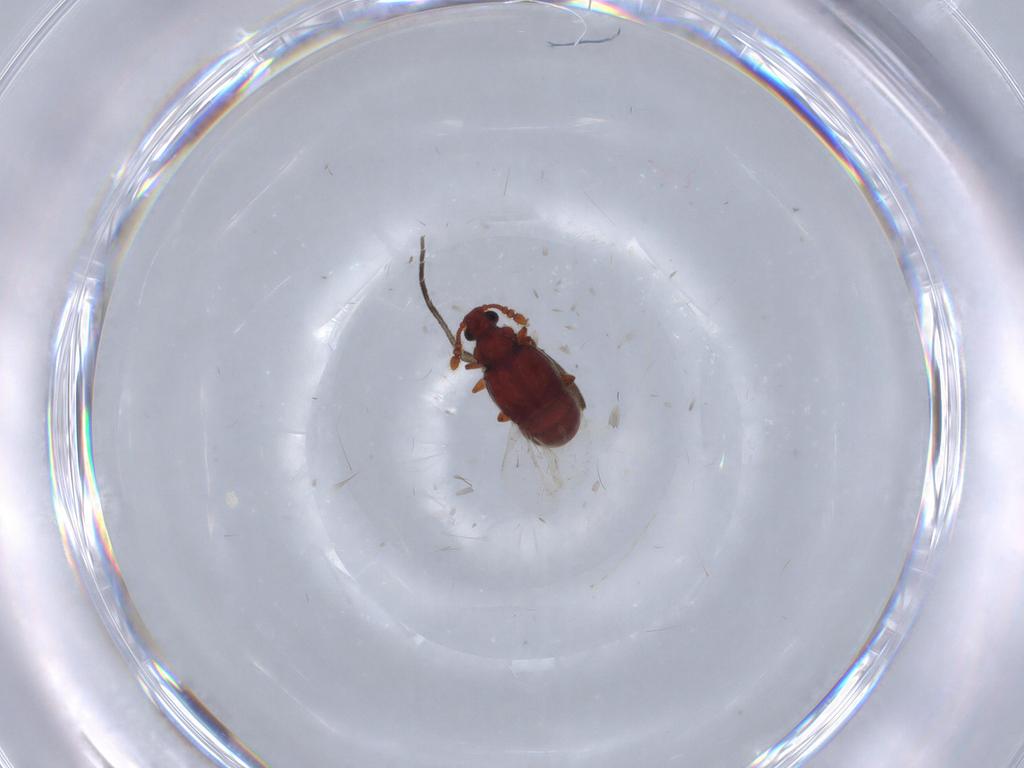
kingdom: Animalia
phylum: Arthropoda
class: Insecta
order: Coleoptera
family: Staphylinidae
